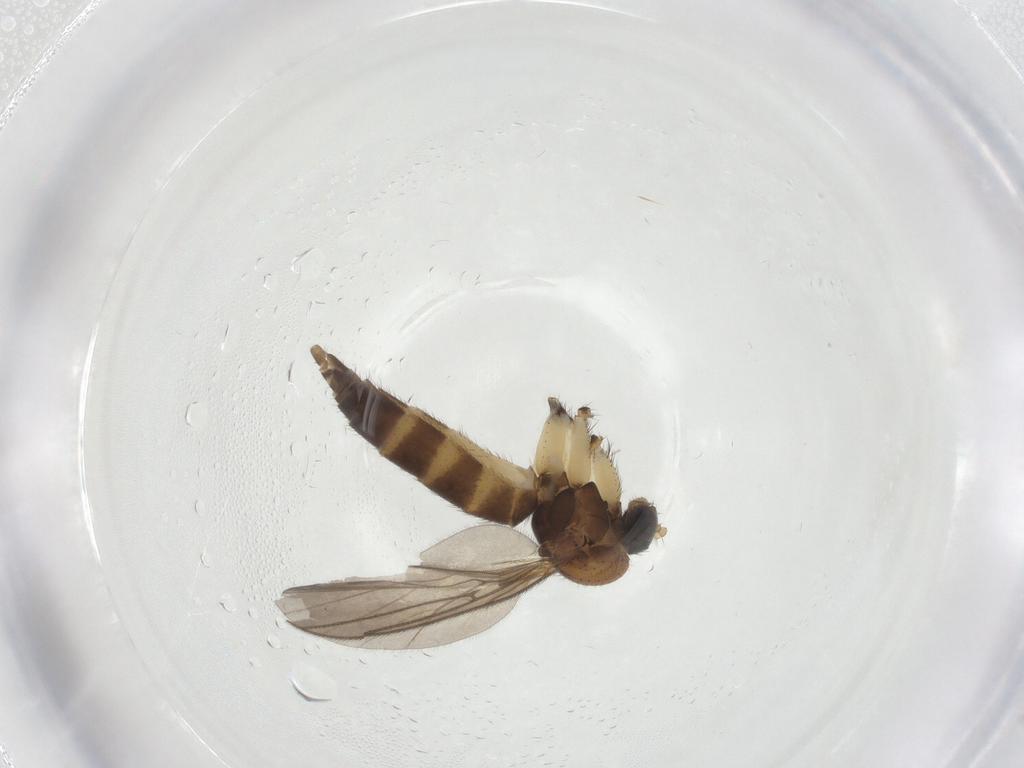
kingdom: Animalia
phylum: Arthropoda
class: Insecta
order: Diptera
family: Mycetophilidae
